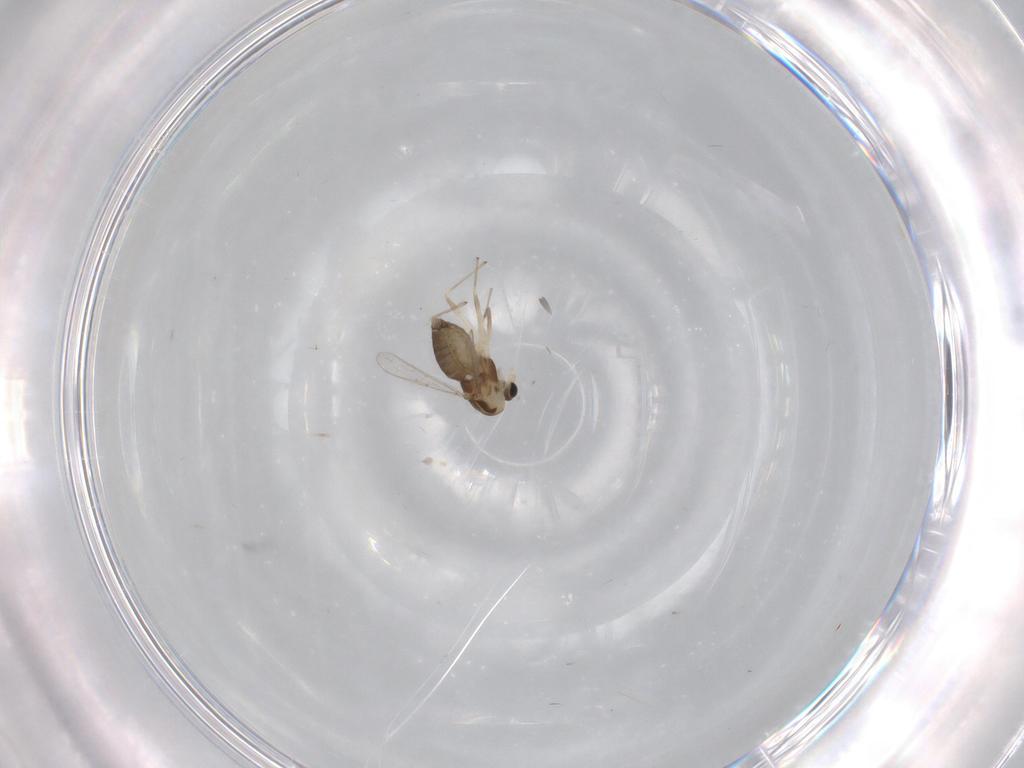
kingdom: Animalia
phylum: Arthropoda
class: Insecta
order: Diptera
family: Chironomidae
